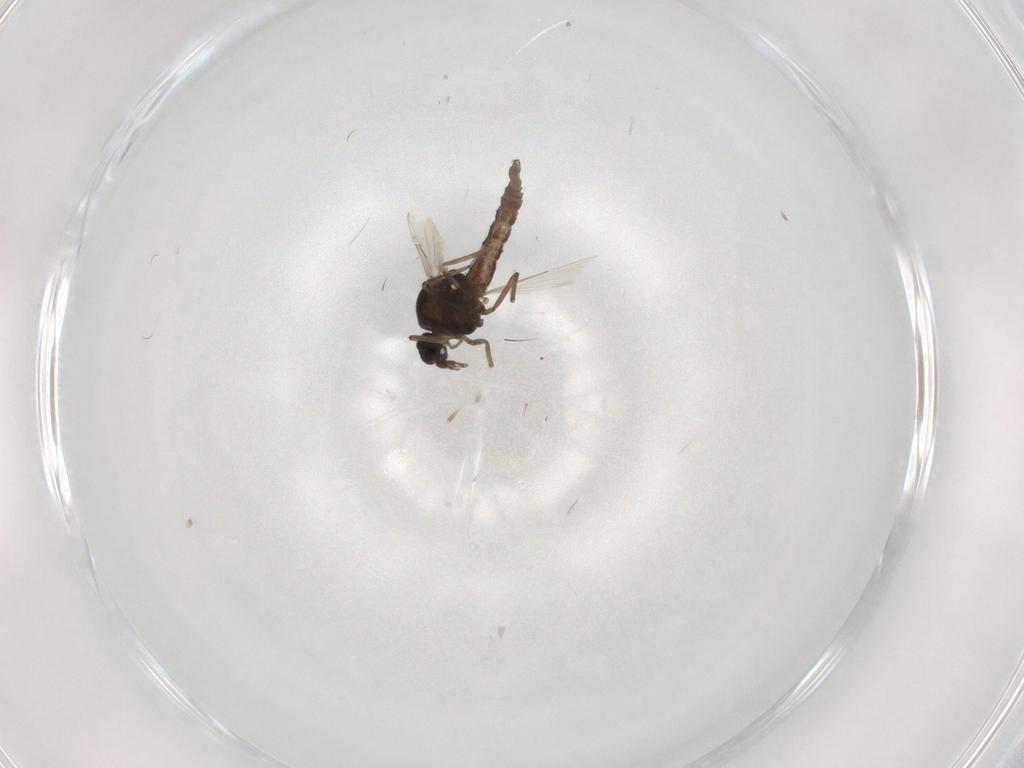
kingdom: Animalia
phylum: Arthropoda
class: Insecta
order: Diptera
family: Ceratopogonidae
